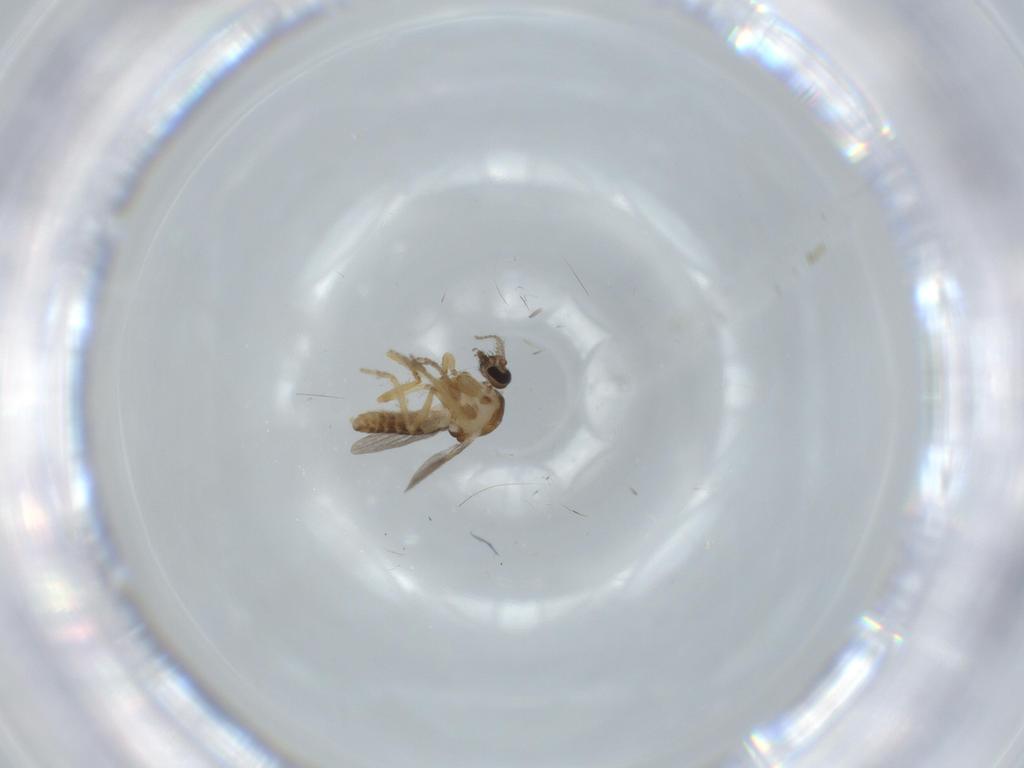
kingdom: Animalia
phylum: Arthropoda
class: Insecta
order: Diptera
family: Ceratopogonidae
